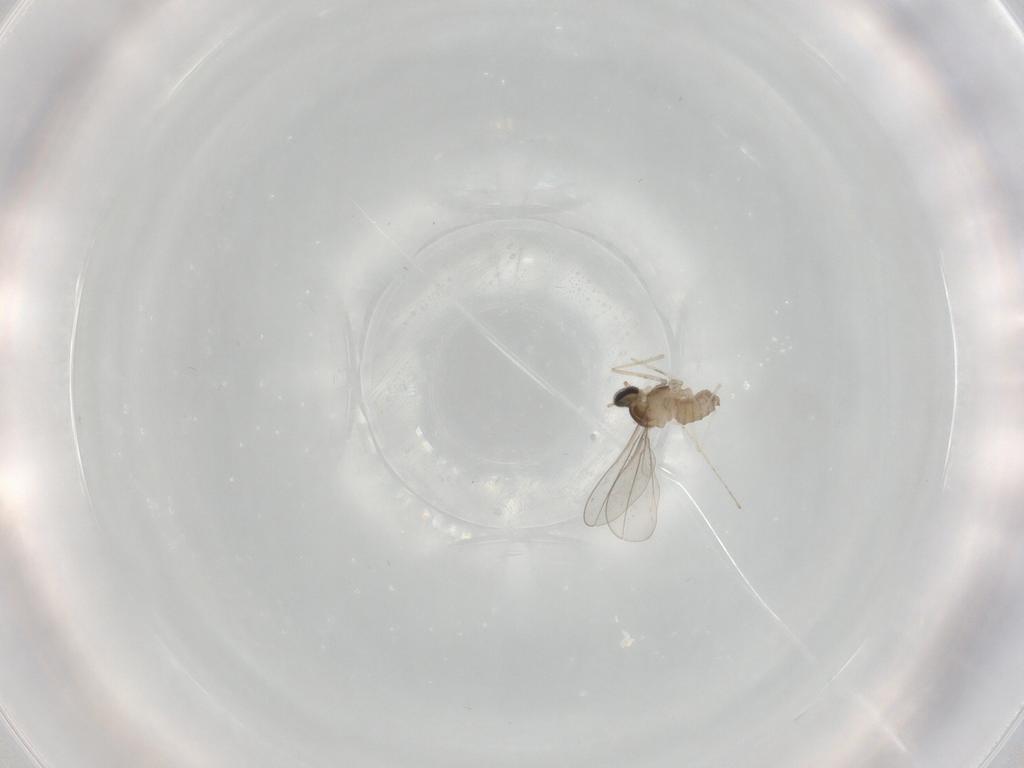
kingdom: Animalia
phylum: Arthropoda
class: Insecta
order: Diptera
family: Cecidomyiidae
